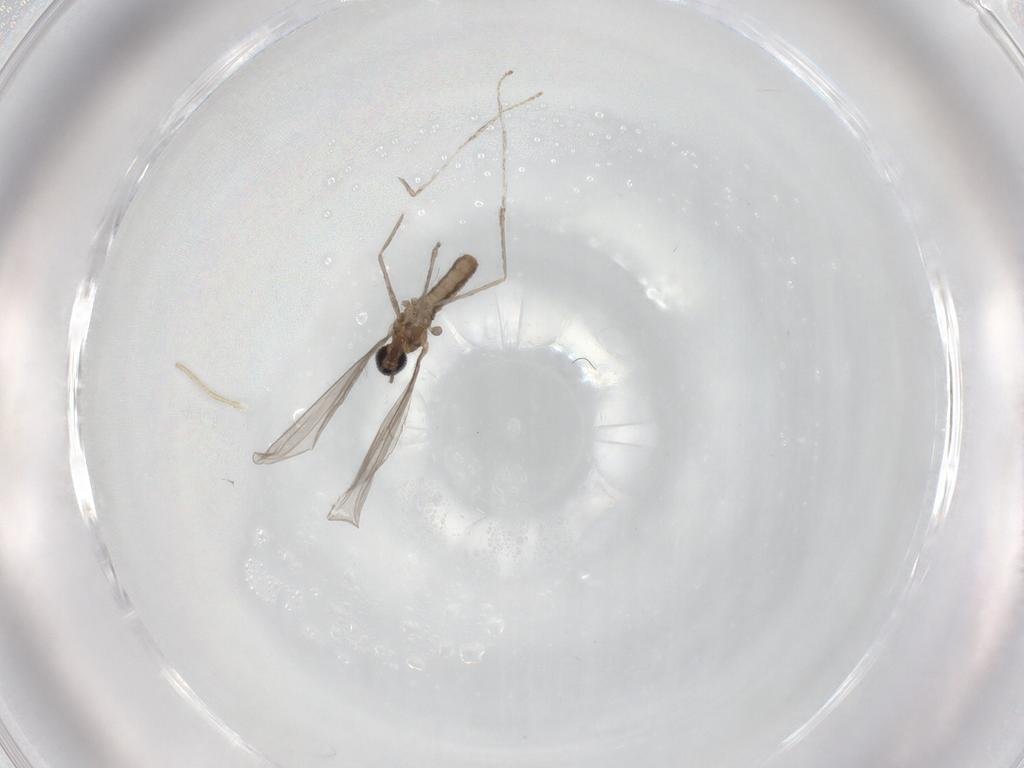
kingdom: Animalia
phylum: Arthropoda
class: Insecta
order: Diptera
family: Cecidomyiidae
